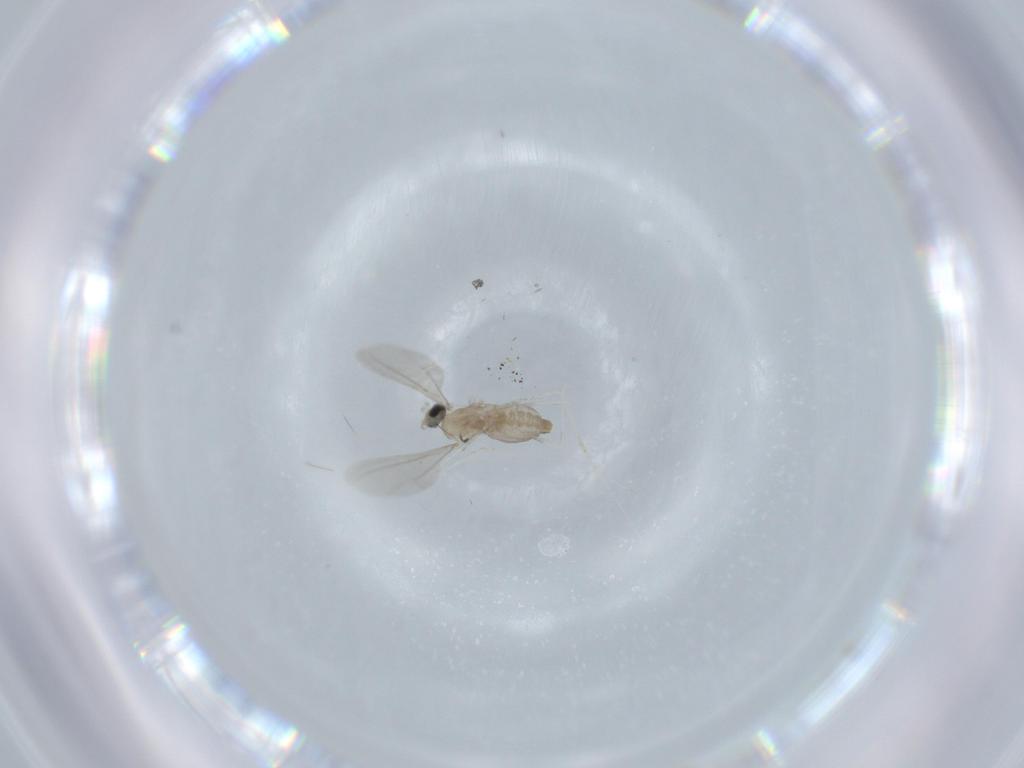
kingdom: Animalia
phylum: Arthropoda
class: Insecta
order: Diptera
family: Cecidomyiidae
